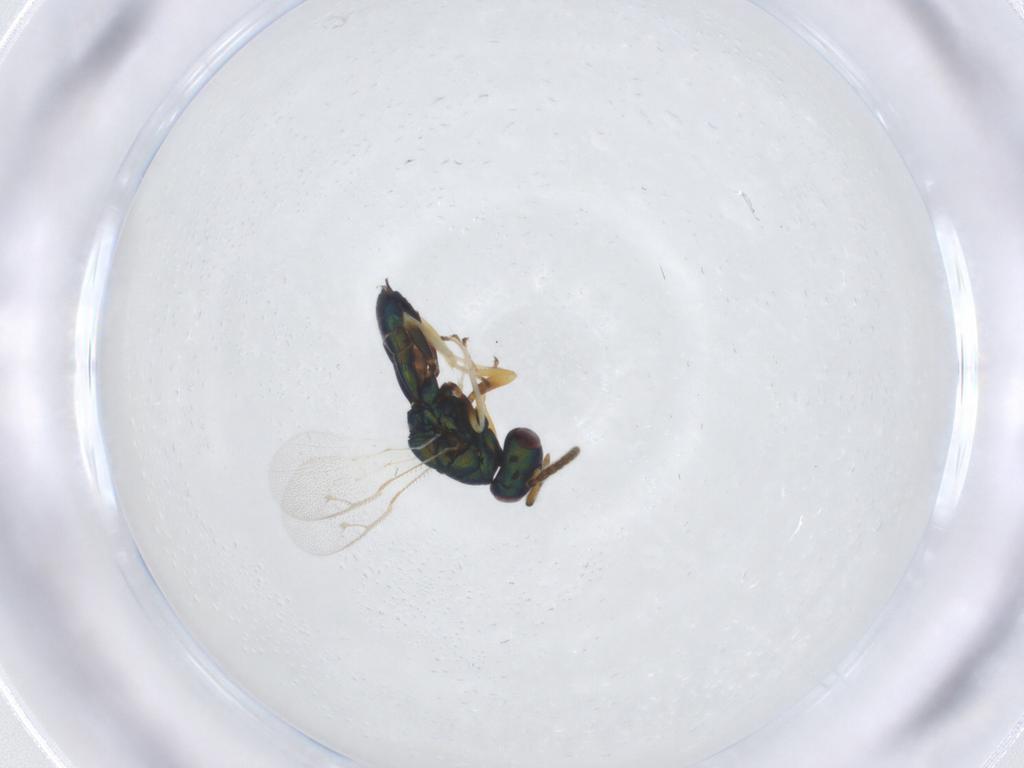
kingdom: Animalia
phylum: Arthropoda
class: Insecta
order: Hymenoptera
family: Pteromalidae
